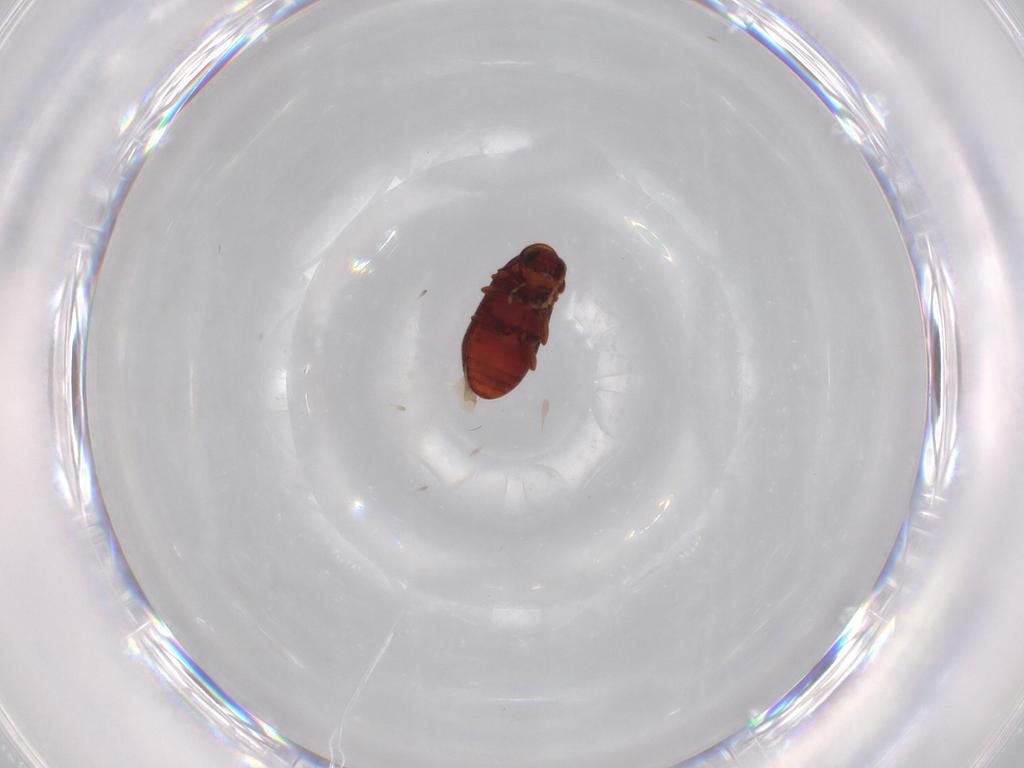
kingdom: Animalia
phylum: Arthropoda
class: Insecta
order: Coleoptera
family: Ptinidae
